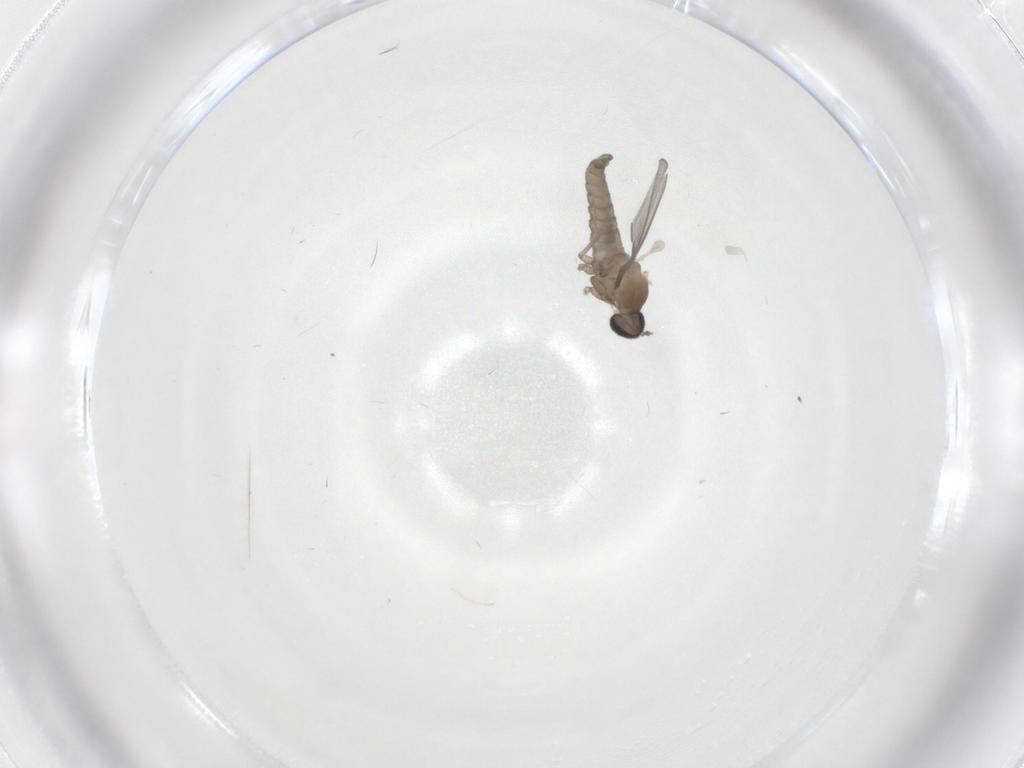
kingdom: Animalia
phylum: Arthropoda
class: Insecta
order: Diptera
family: Cecidomyiidae
